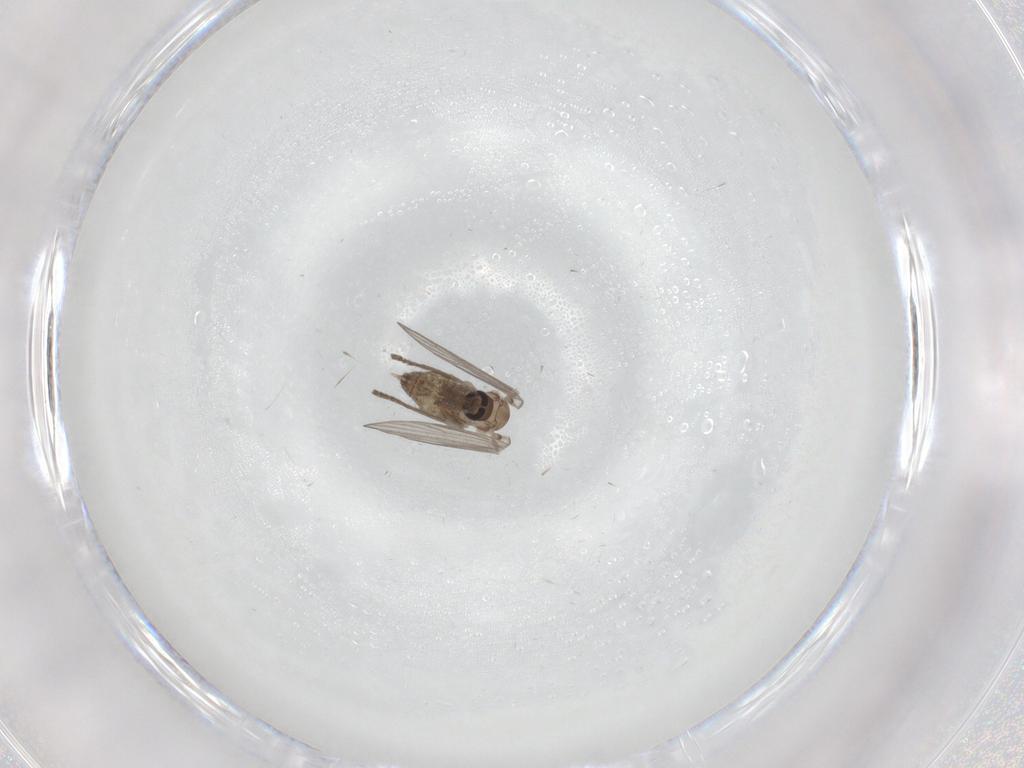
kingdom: Animalia
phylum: Arthropoda
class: Insecta
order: Diptera
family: Psychodidae
